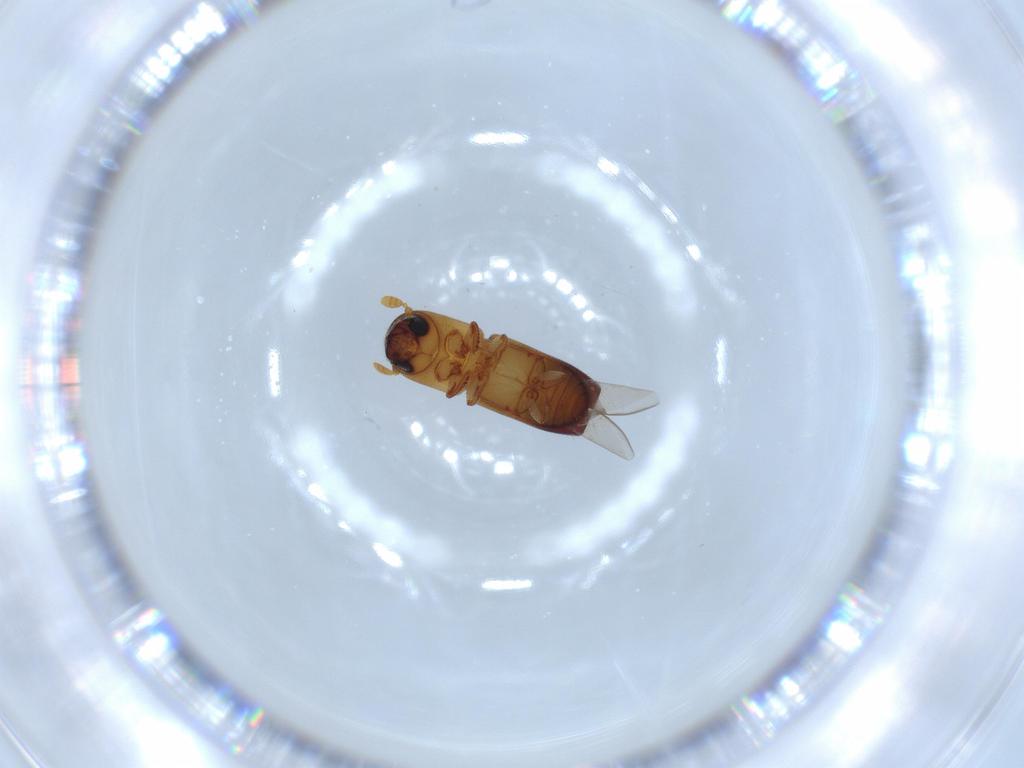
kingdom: Animalia
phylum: Arthropoda
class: Insecta
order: Coleoptera
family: Curculionidae
